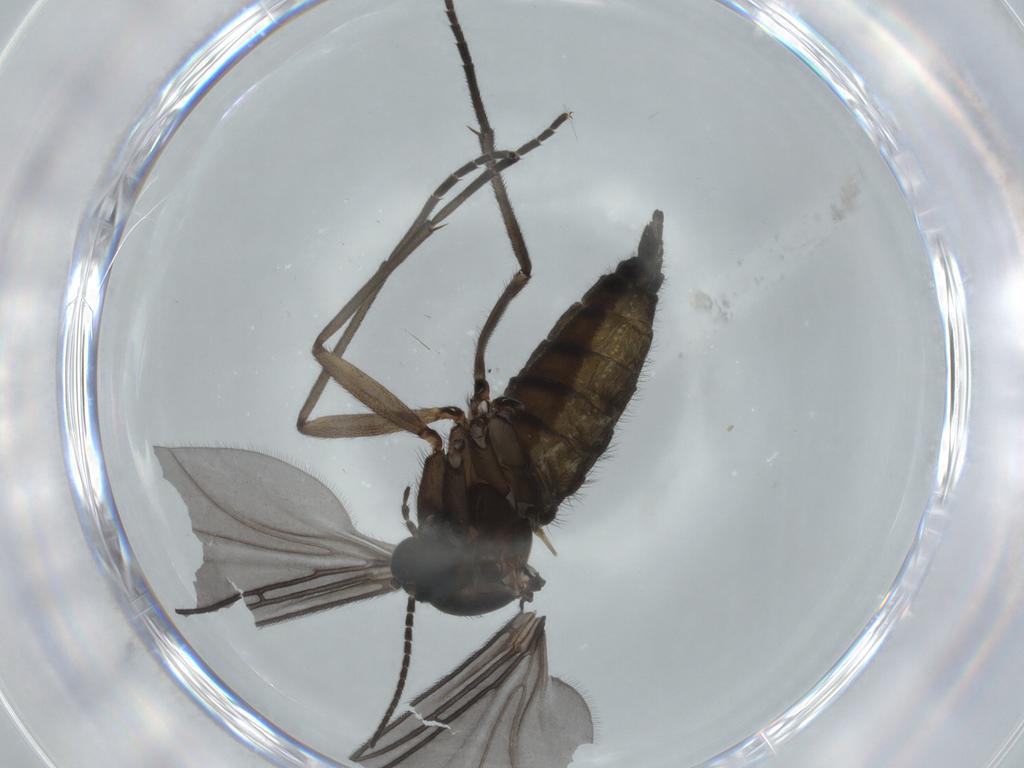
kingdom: Animalia
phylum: Arthropoda
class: Insecta
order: Diptera
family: Sciaridae
